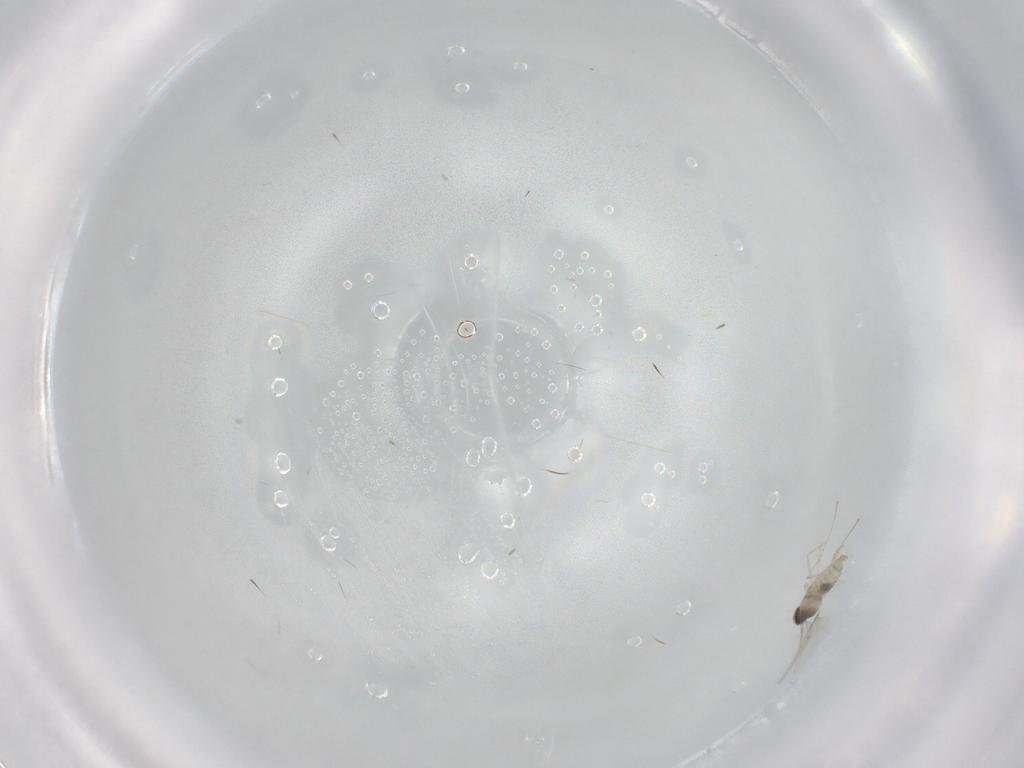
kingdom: Animalia
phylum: Arthropoda
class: Insecta
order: Diptera
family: Cecidomyiidae
